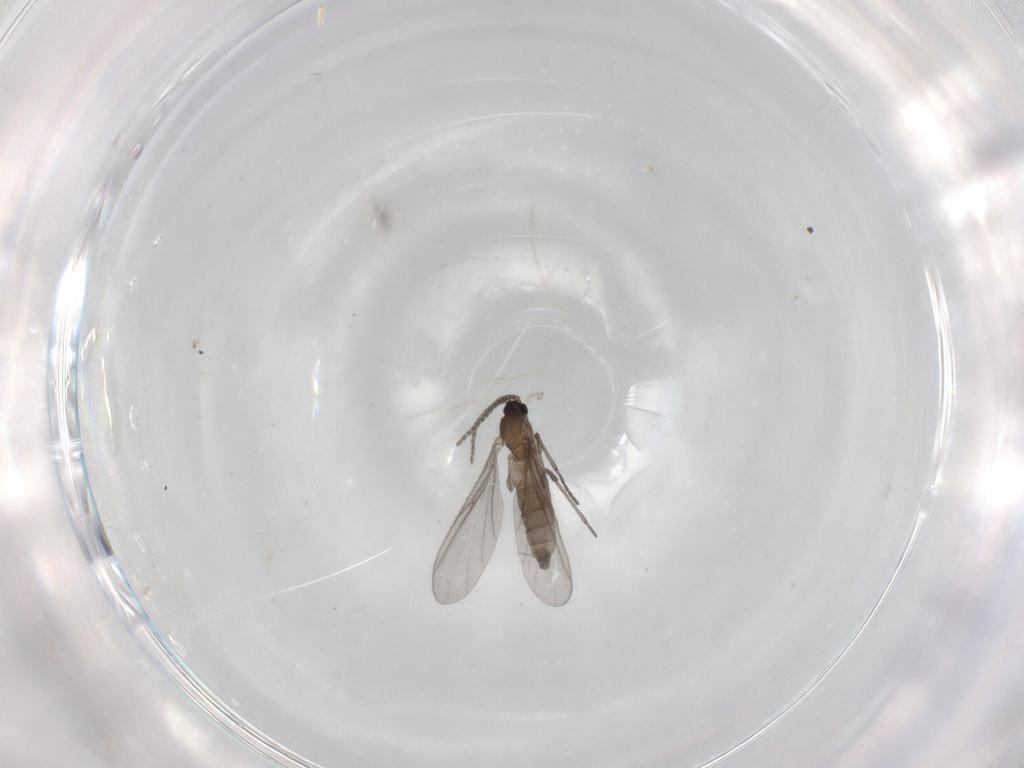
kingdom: Animalia
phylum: Arthropoda
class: Insecta
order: Diptera
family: Sciaridae
